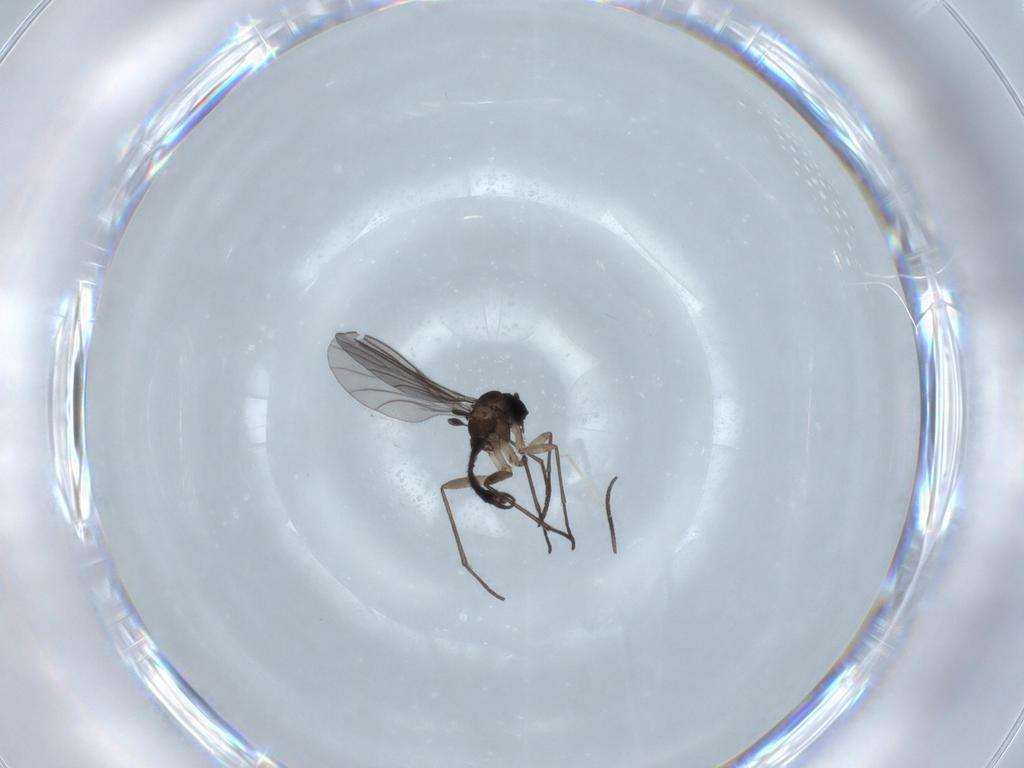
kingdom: Animalia
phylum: Arthropoda
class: Insecta
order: Diptera
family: Sciaridae
